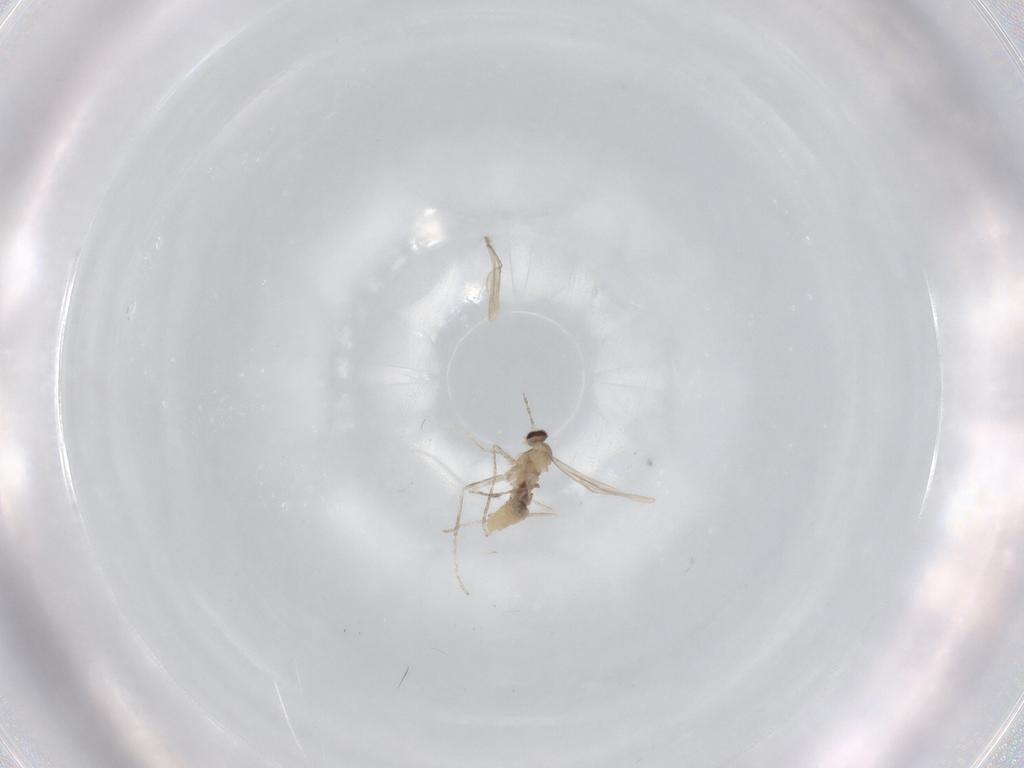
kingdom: Animalia
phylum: Arthropoda
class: Insecta
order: Diptera
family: Cecidomyiidae
